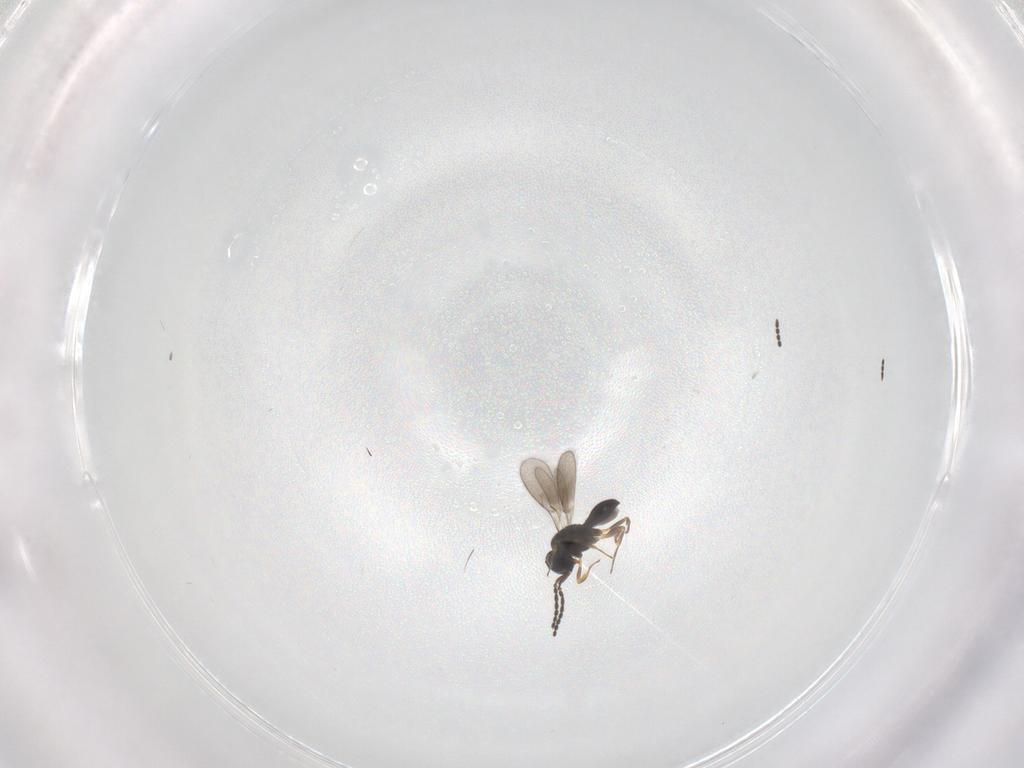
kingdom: Animalia
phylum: Arthropoda
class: Insecta
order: Hymenoptera
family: Scelionidae
